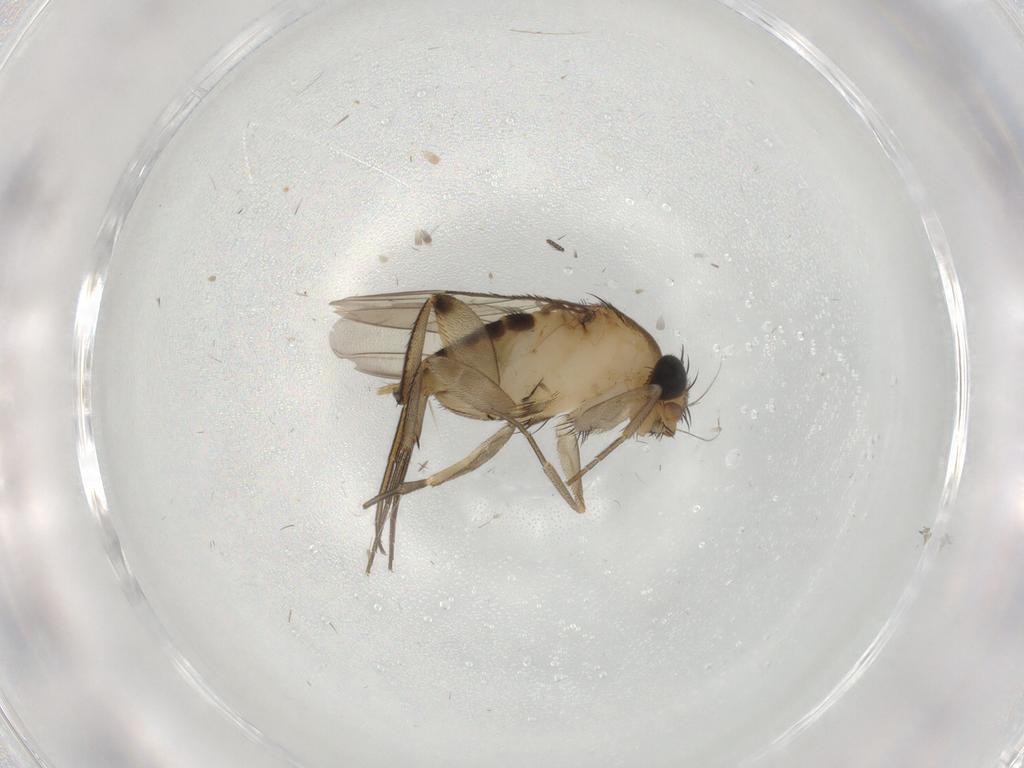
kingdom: Animalia
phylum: Arthropoda
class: Insecta
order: Diptera
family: Phoridae
